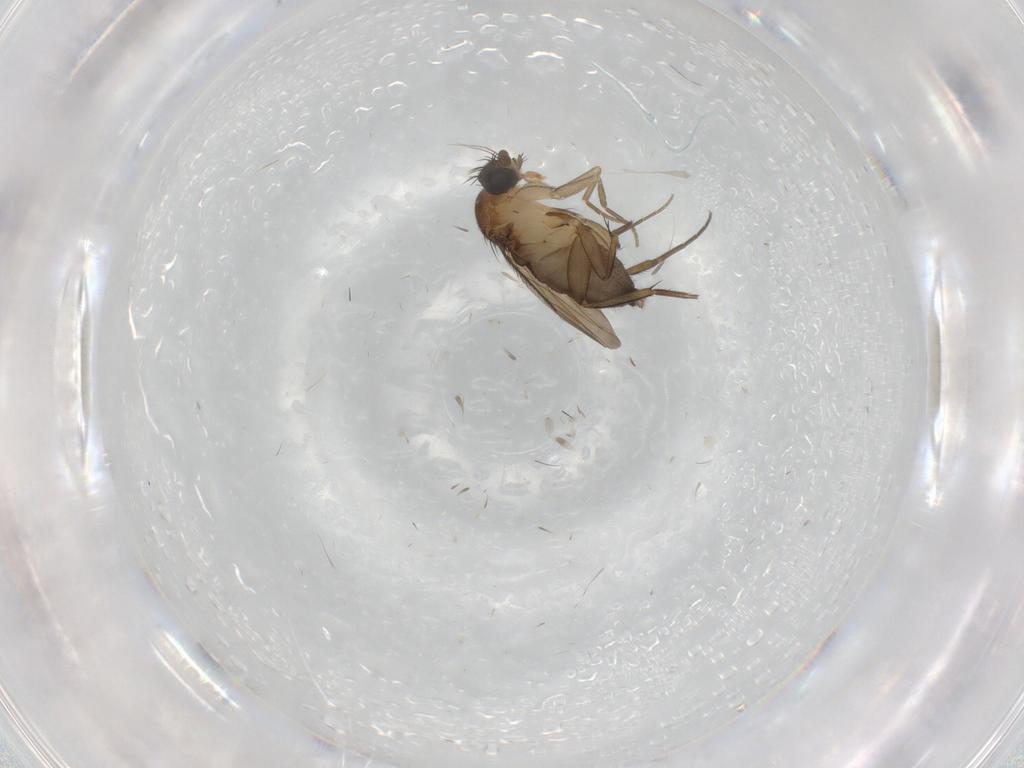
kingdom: Animalia
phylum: Arthropoda
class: Insecta
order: Diptera
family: Phoridae
